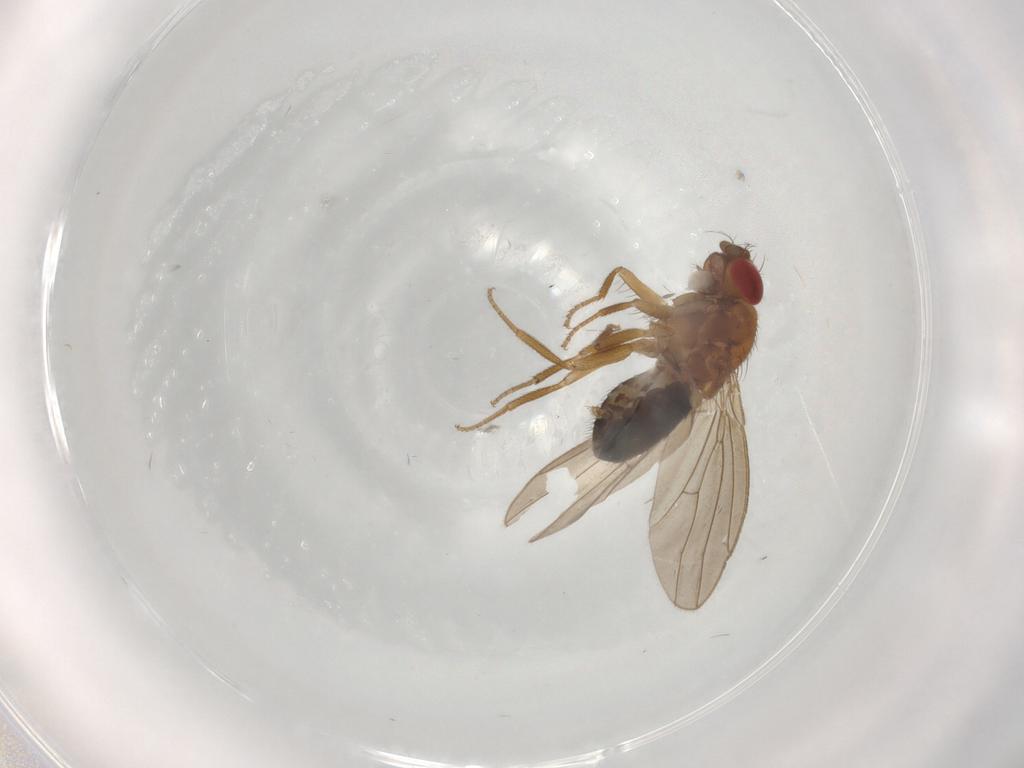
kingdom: Animalia
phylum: Arthropoda
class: Insecta
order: Diptera
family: Drosophilidae
